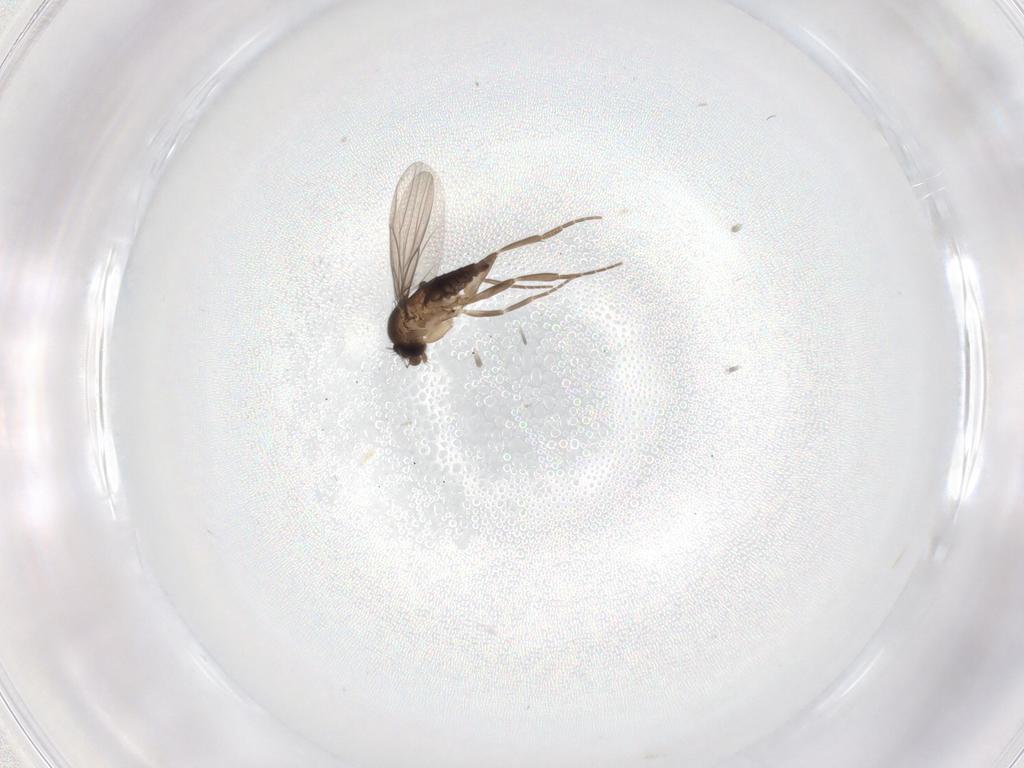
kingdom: Animalia
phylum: Arthropoda
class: Insecta
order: Diptera
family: Phoridae
